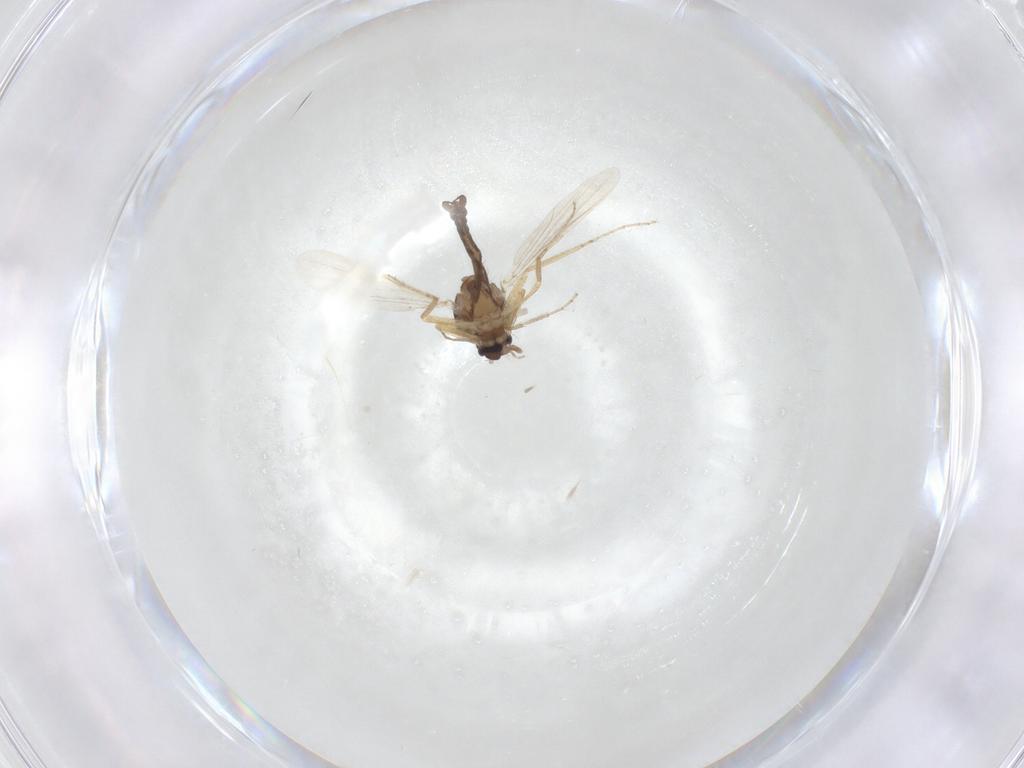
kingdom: Animalia
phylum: Arthropoda
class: Insecta
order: Diptera
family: Ceratopogonidae
